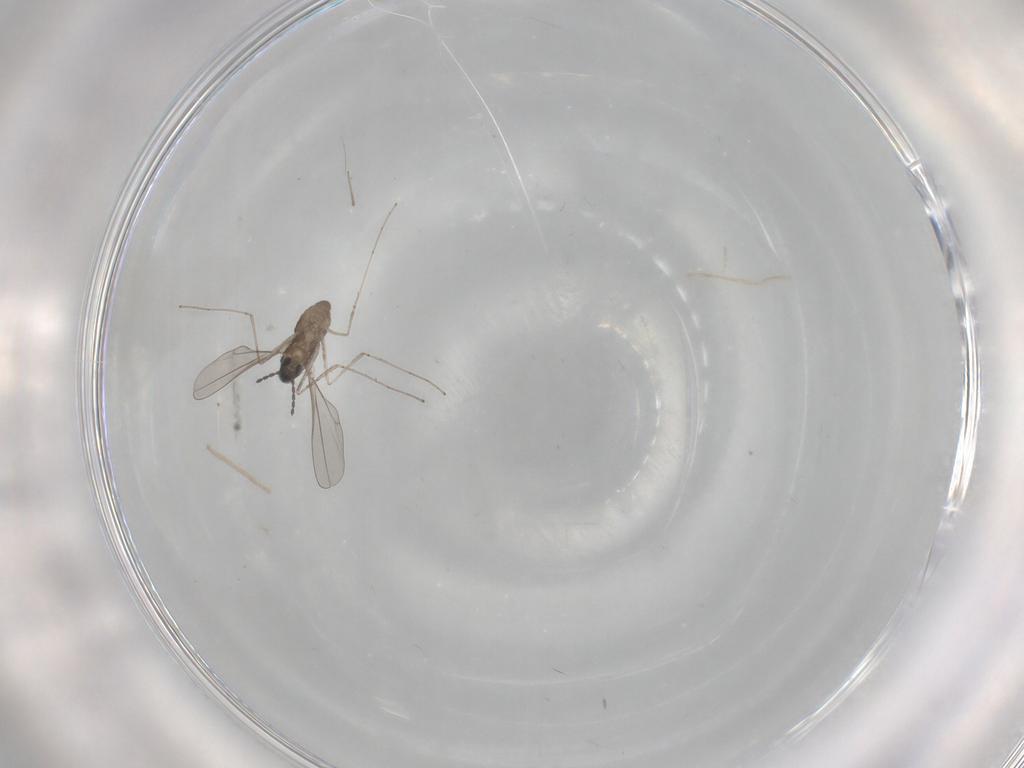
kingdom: Animalia
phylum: Arthropoda
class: Insecta
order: Diptera
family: Cecidomyiidae
